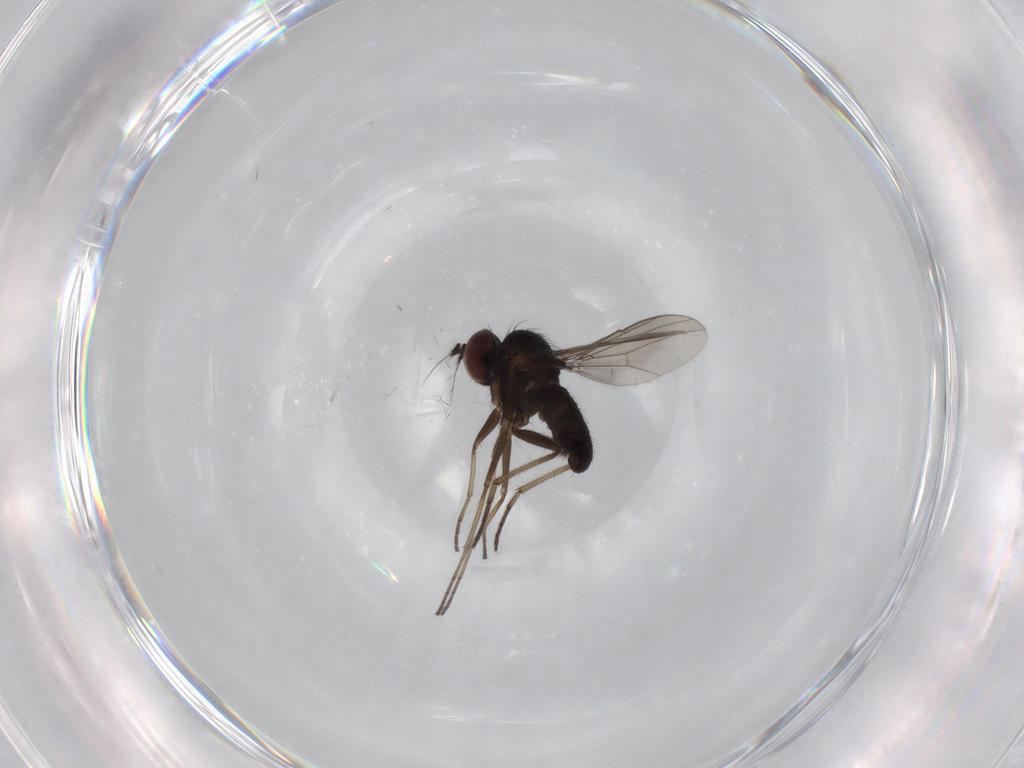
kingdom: Animalia
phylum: Arthropoda
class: Insecta
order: Diptera
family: Dolichopodidae
